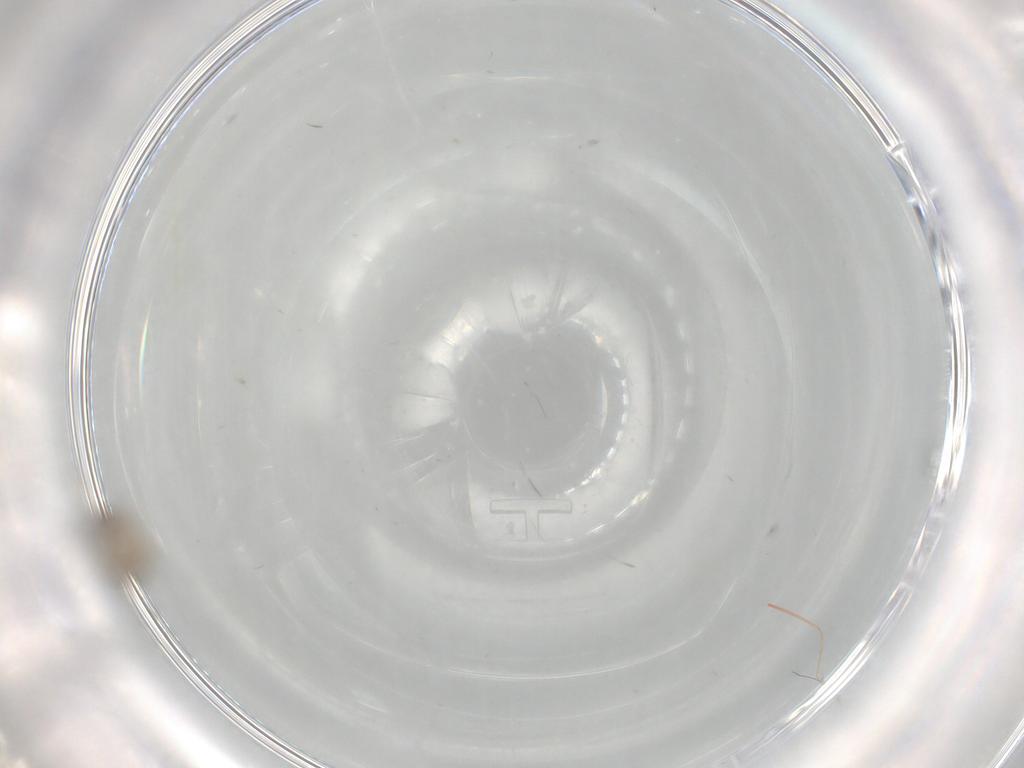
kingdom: Animalia
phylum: Arthropoda
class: Insecta
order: Diptera
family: Cecidomyiidae
